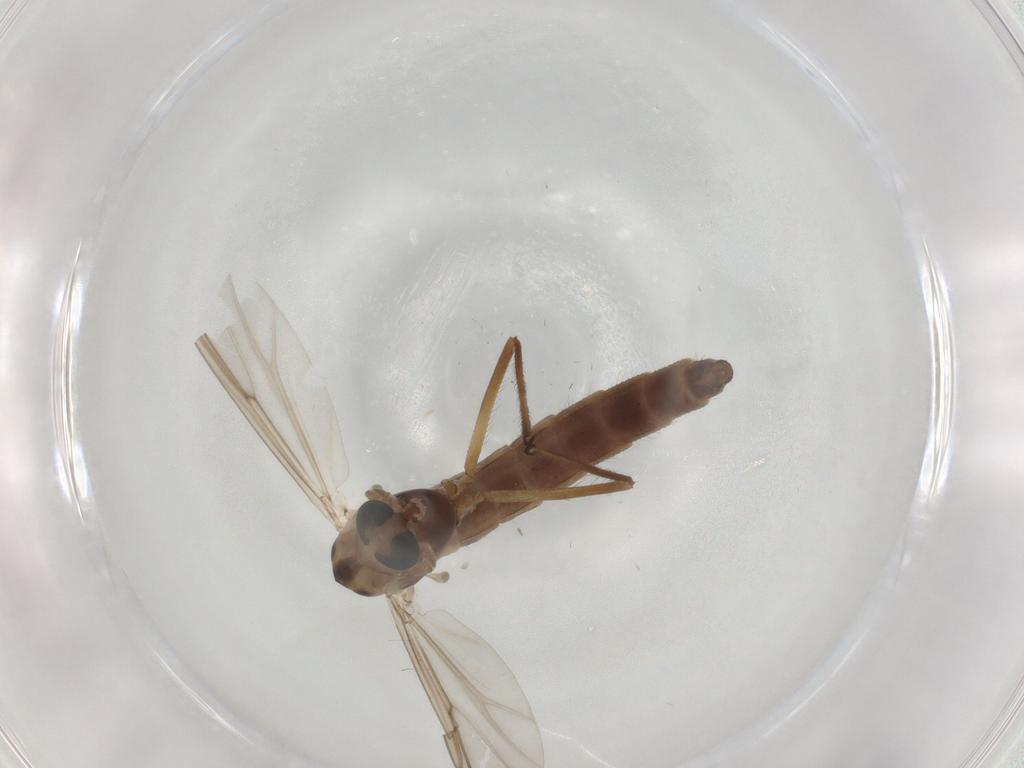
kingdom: Animalia
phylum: Arthropoda
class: Insecta
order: Diptera
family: Chironomidae
